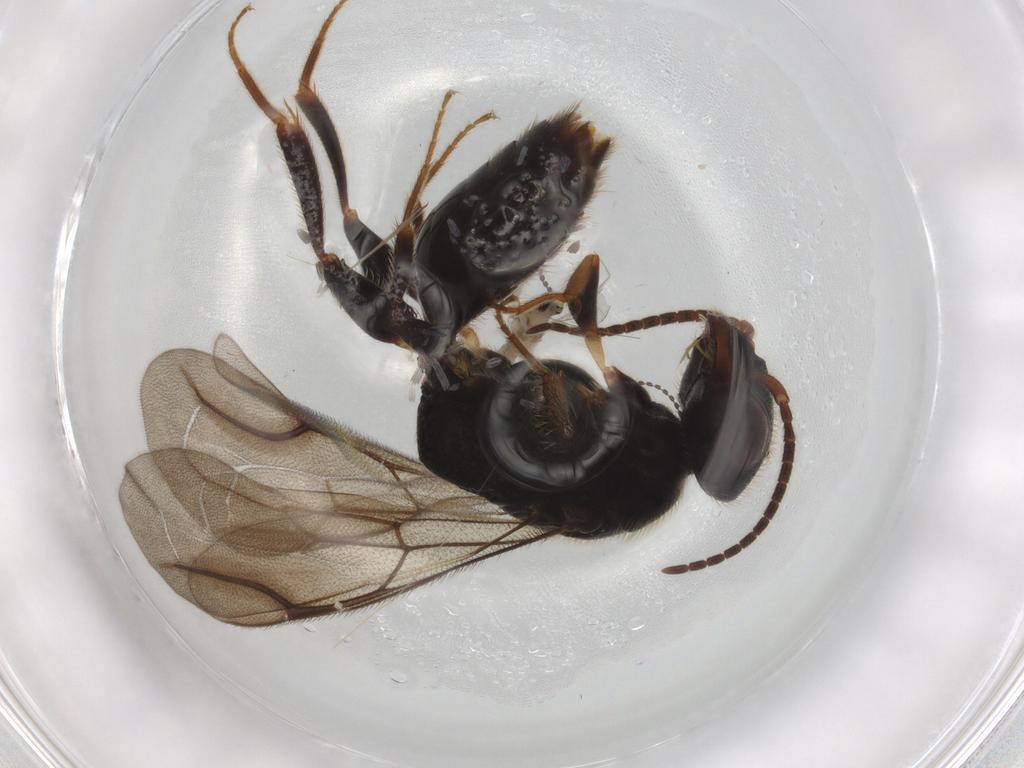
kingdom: Animalia
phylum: Arthropoda
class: Insecta
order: Hymenoptera
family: Bethylidae
